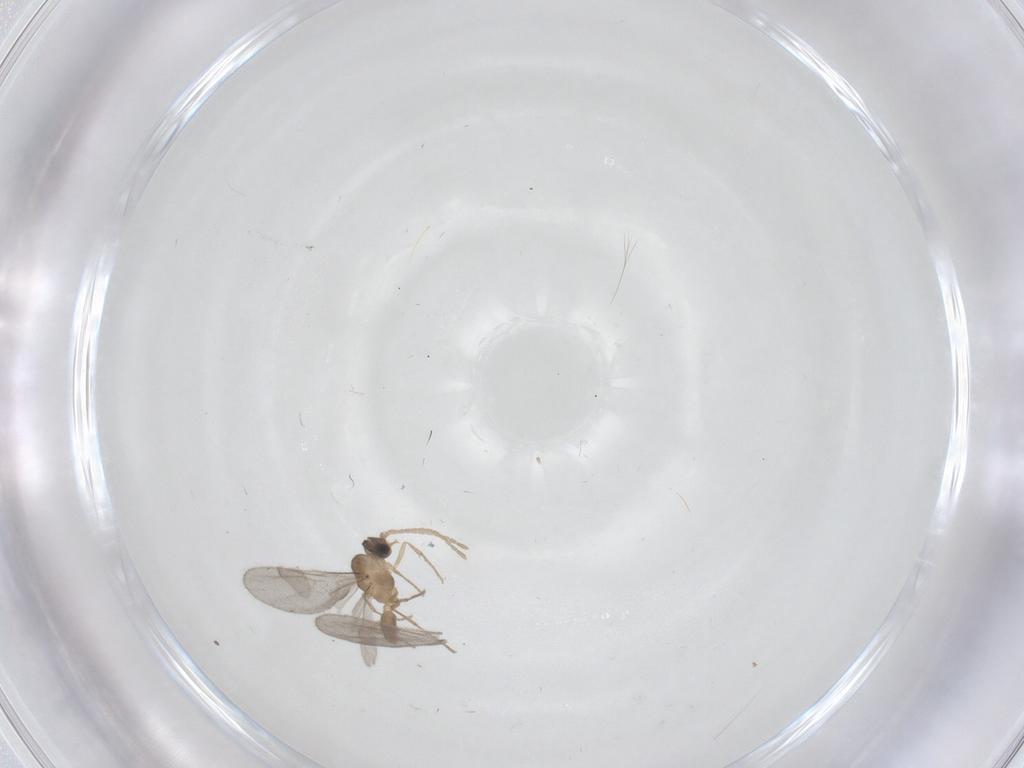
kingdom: Animalia
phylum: Arthropoda
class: Insecta
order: Hymenoptera
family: Formicidae
